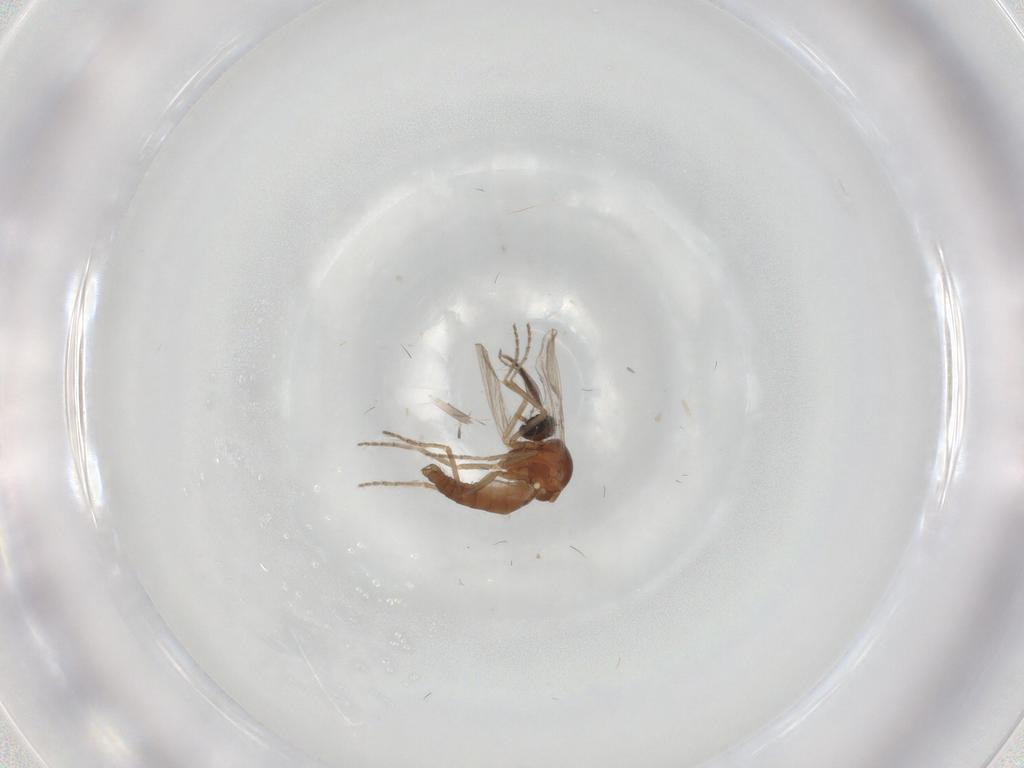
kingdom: Animalia
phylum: Arthropoda
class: Insecta
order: Diptera
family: Ceratopogonidae
